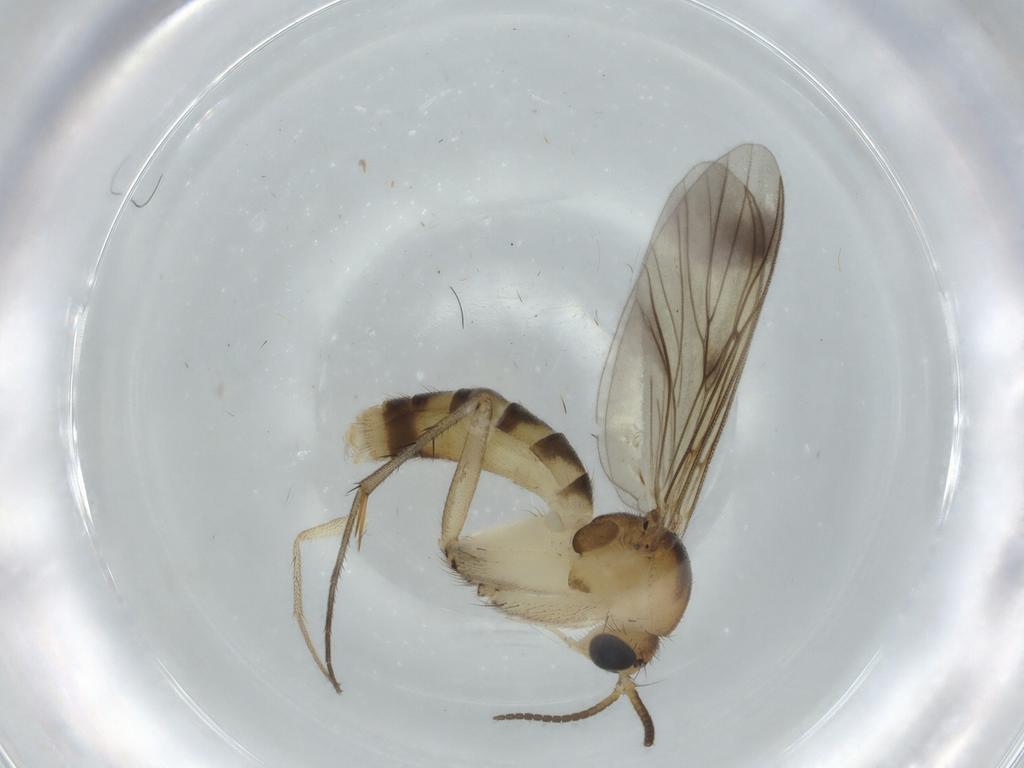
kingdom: Animalia
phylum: Arthropoda
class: Insecta
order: Diptera
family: Mycetophilidae
